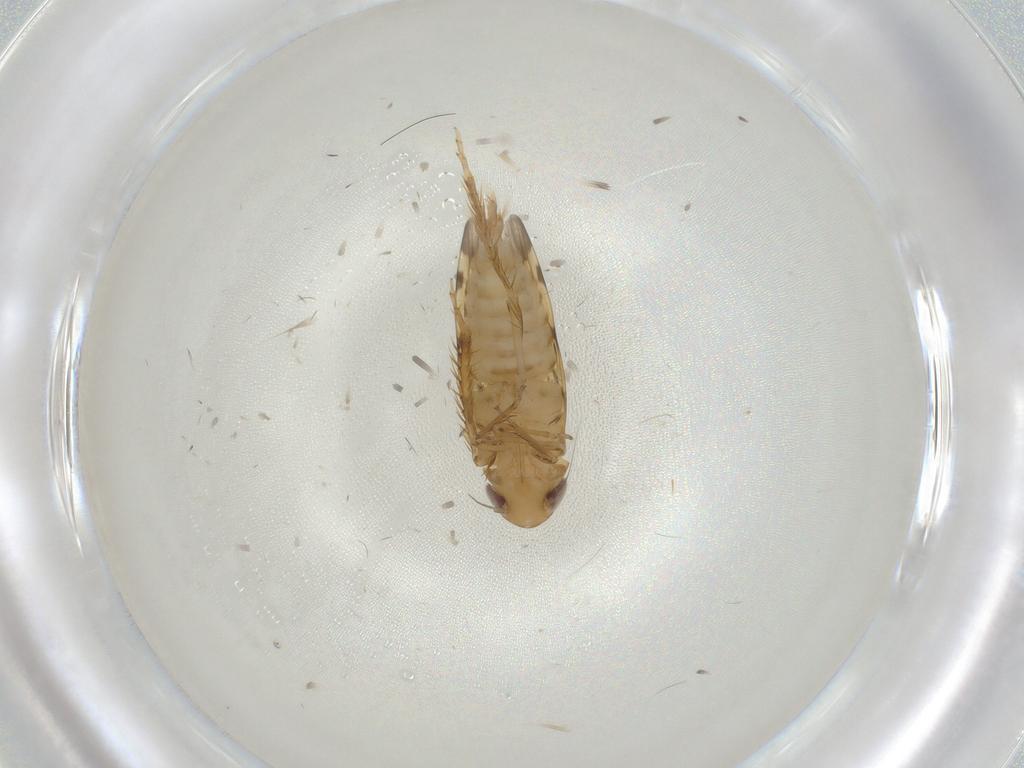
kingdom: Animalia
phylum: Arthropoda
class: Insecta
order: Hemiptera
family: Cicadellidae
